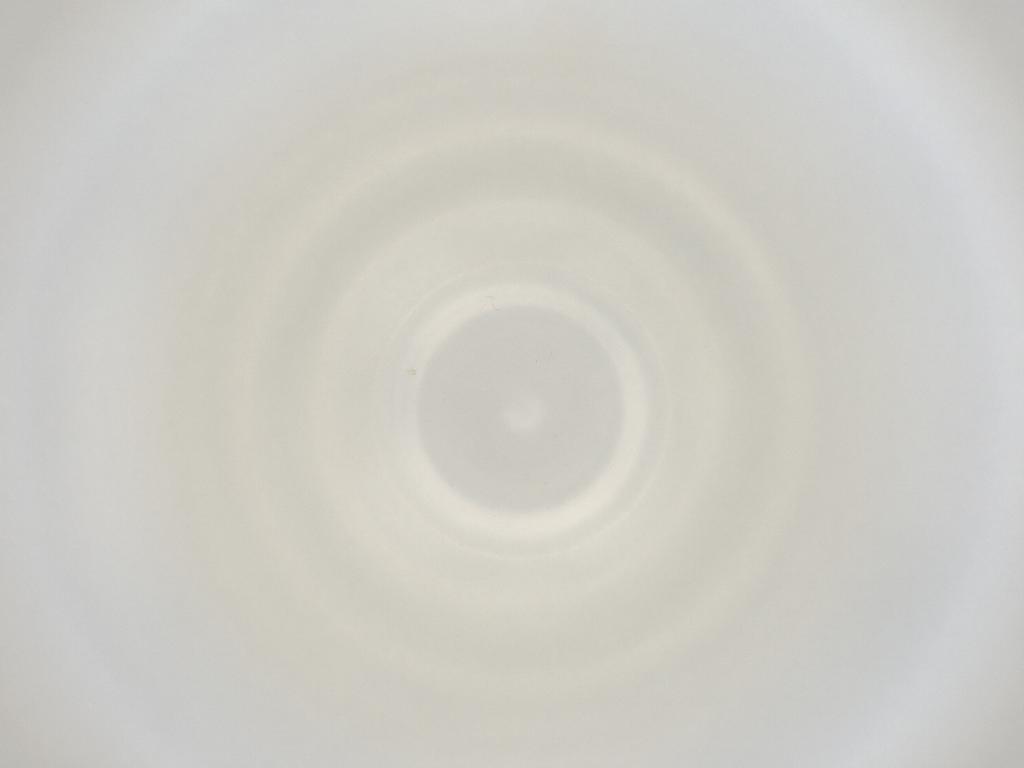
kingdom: Animalia
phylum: Arthropoda
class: Insecta
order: Diptera
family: Cecidomyiidae
